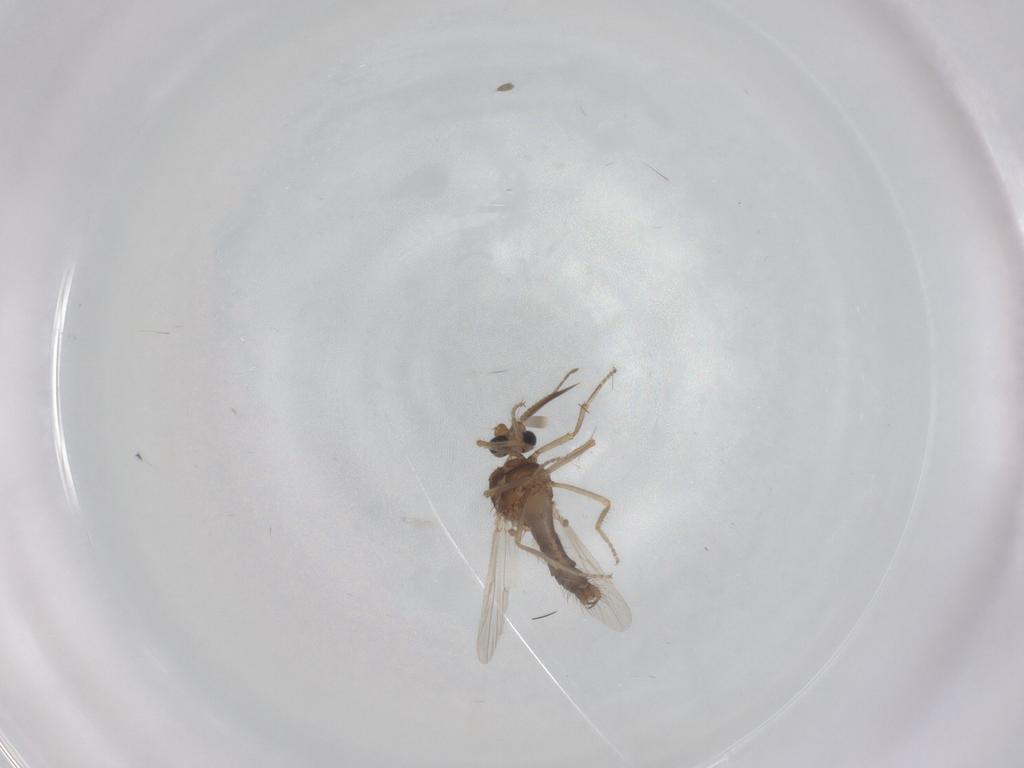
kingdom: Animalia
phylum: Arthropoda
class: Insecta
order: Diptera
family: Ceratopogonidae
